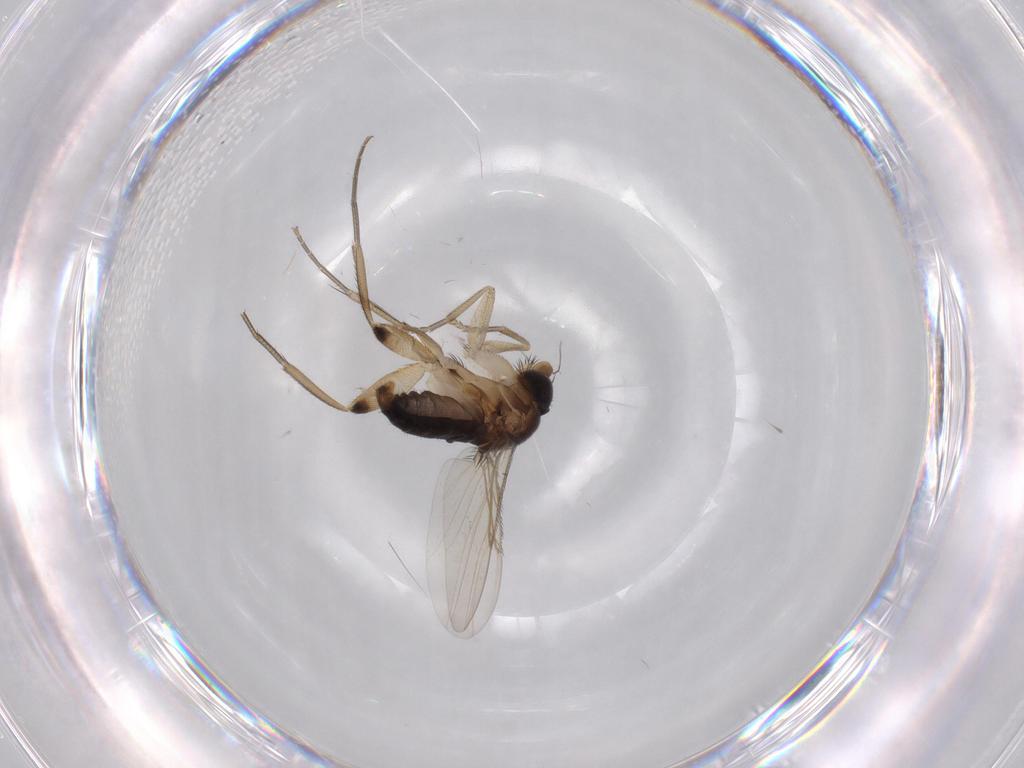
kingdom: Animalia
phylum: Arthropoda
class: Insecta
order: Diptera
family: Phoridae
